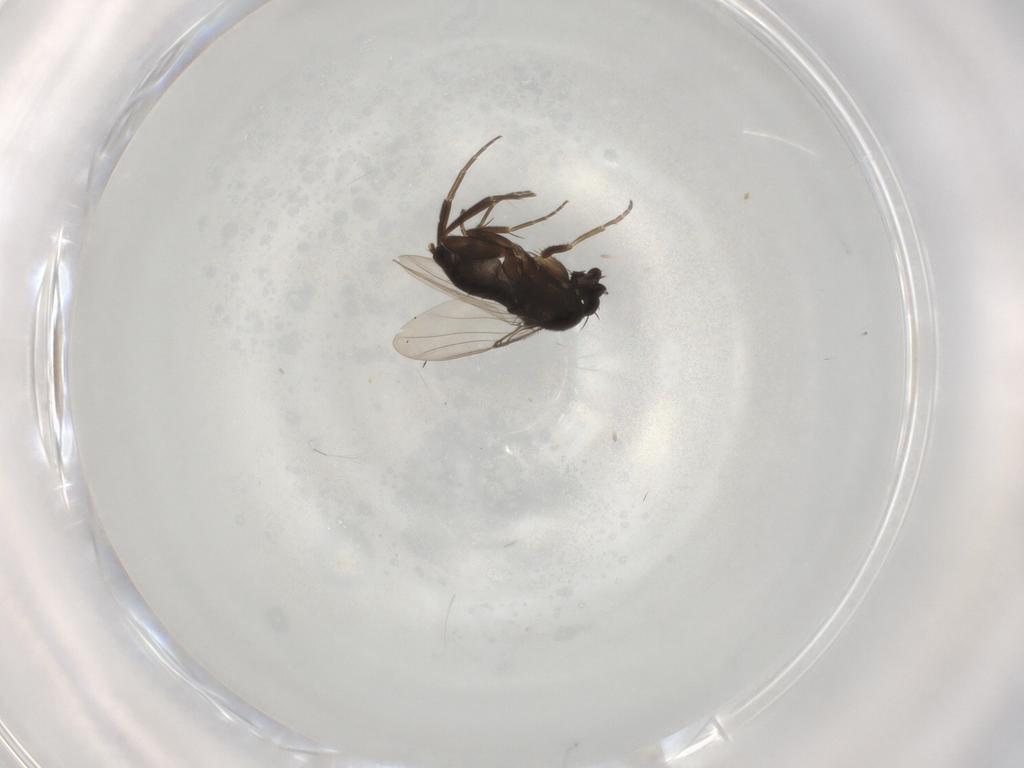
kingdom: Animalia
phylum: Arthropoda
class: Insecta
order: Diptera
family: Phoridae
